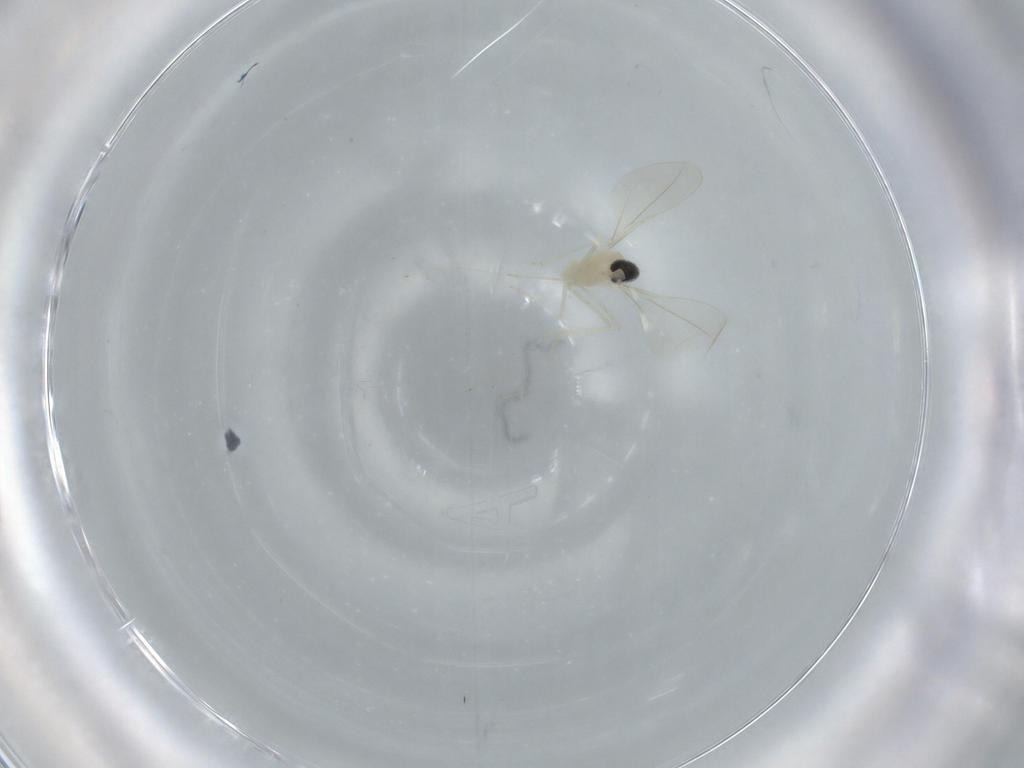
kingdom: Animalia
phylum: Arthropoda
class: Insecta
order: Diptera
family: Cecidomyiidae
